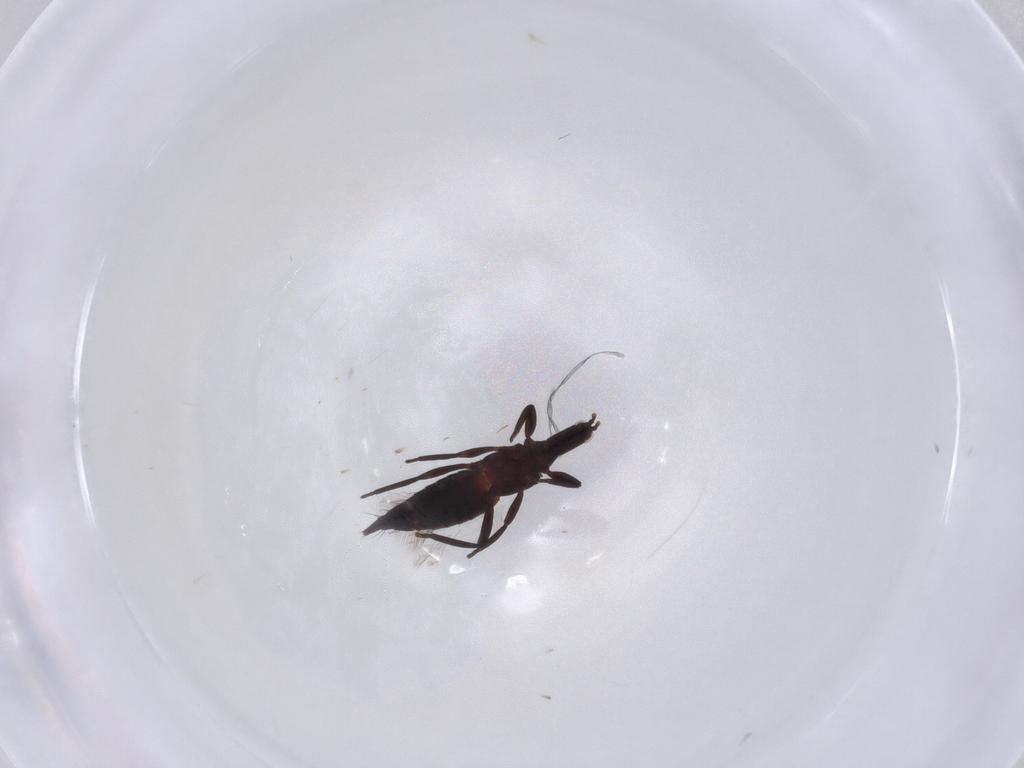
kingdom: Animalia
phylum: Arthropoda
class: Insecta
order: Thysanoptera
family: Phlaeothripidae
